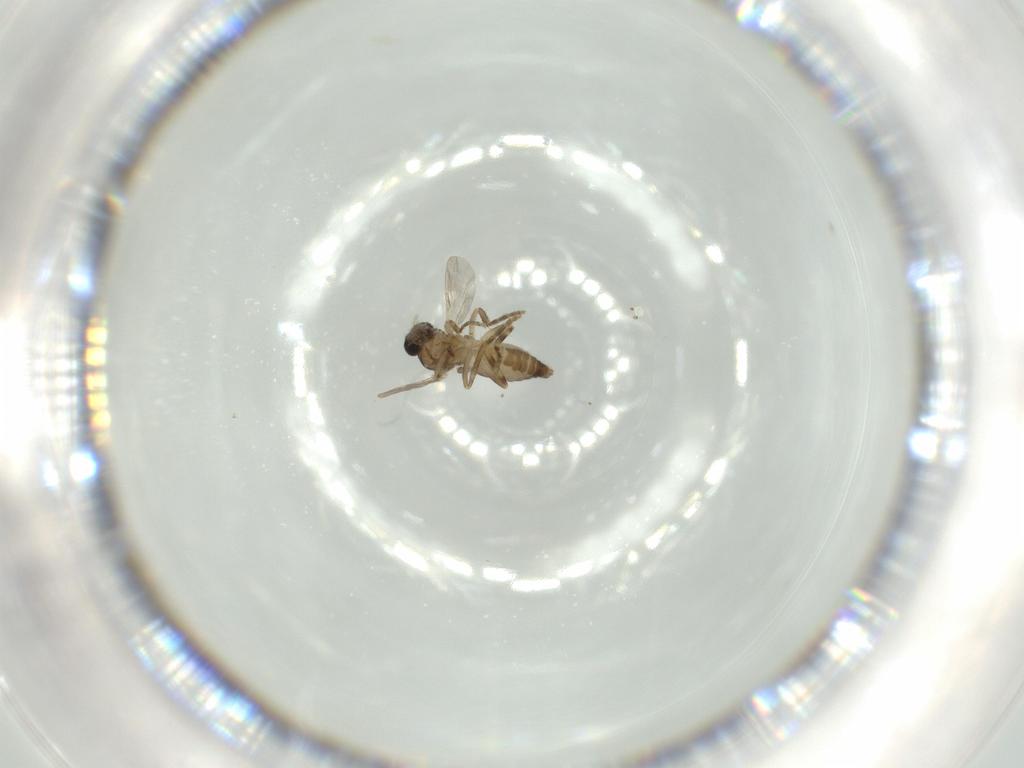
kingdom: Animalia
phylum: Arthropoda
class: Insecta
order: Diptera
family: Ceratopogonidae
